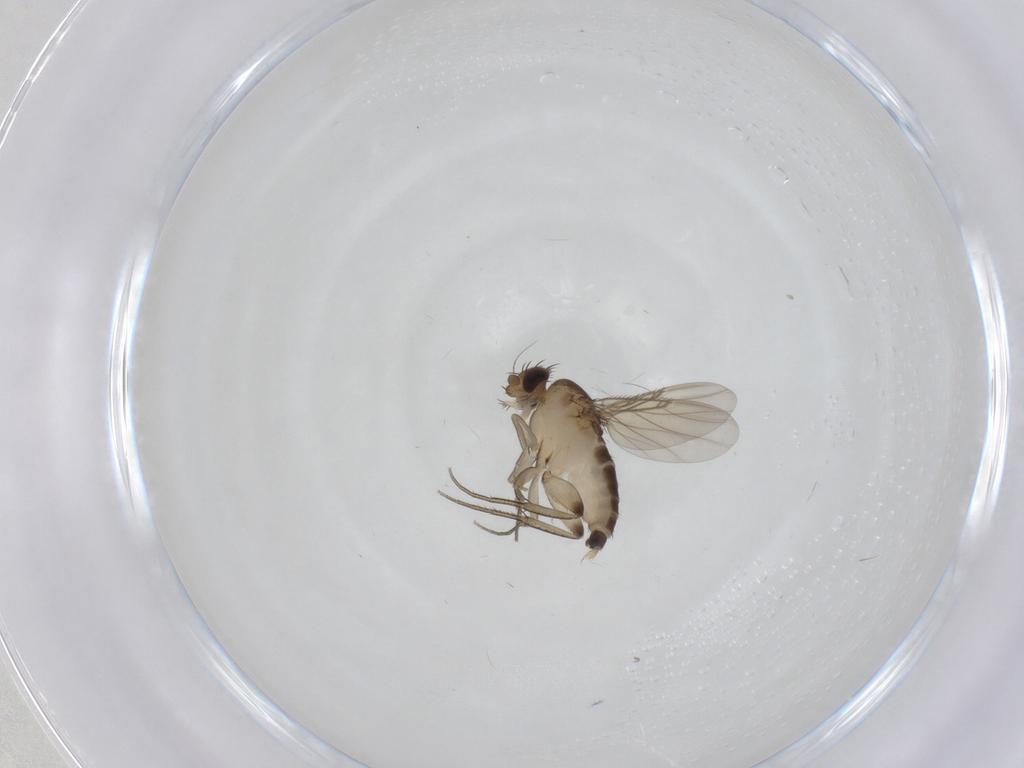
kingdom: Animalia
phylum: Arthropoda
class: Insecta
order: Diptera
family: Phoridae
